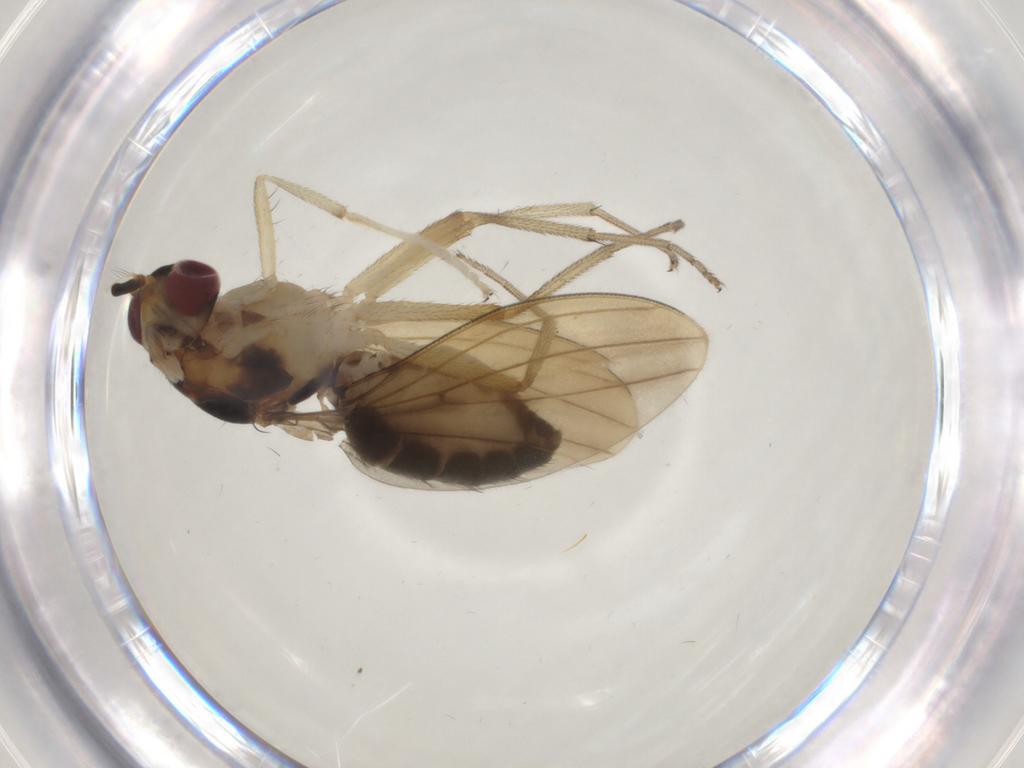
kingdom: Animalia
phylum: Arthropoda
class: Insecta
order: Diptera
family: Lauxaniidae
